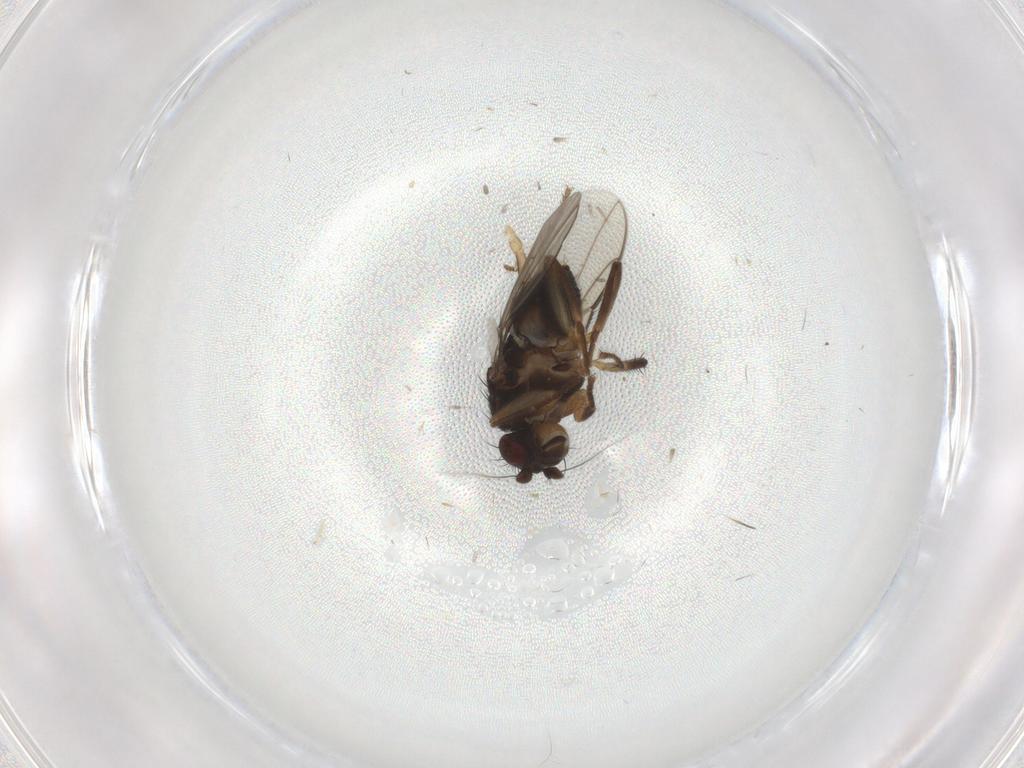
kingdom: Animalia
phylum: Arthropoda
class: Insecta
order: Diptera
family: Sphaeroceridae
